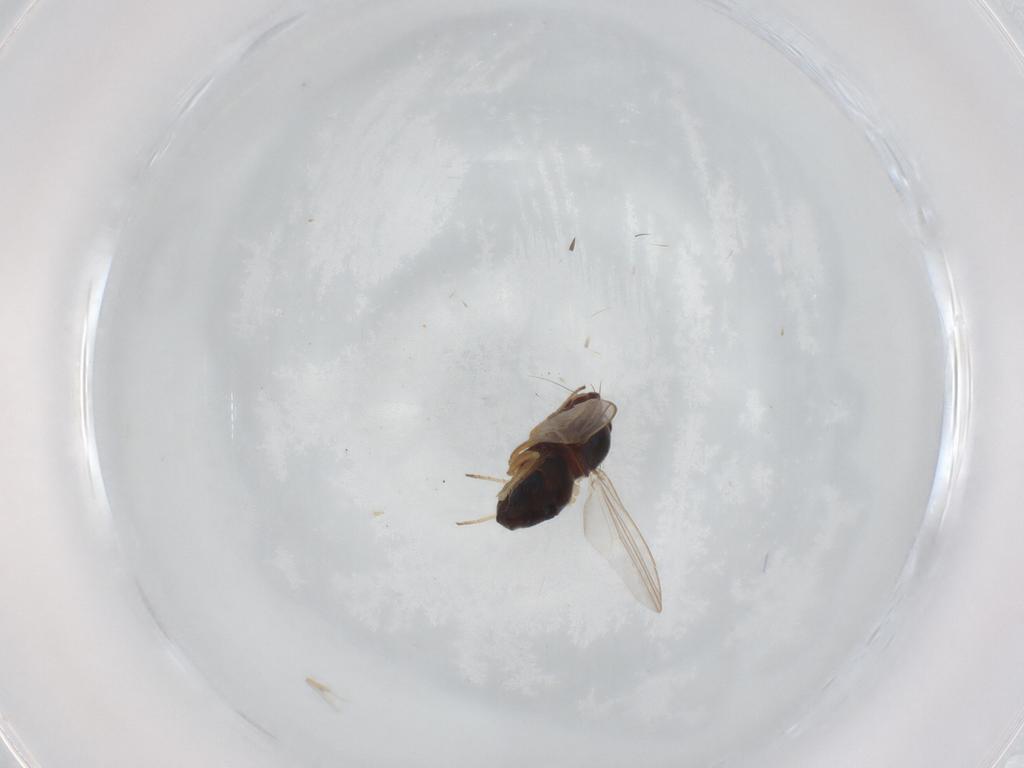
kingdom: Animalia
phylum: Arthropoda
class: Insecta
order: Diptera
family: Dolichopodidae
